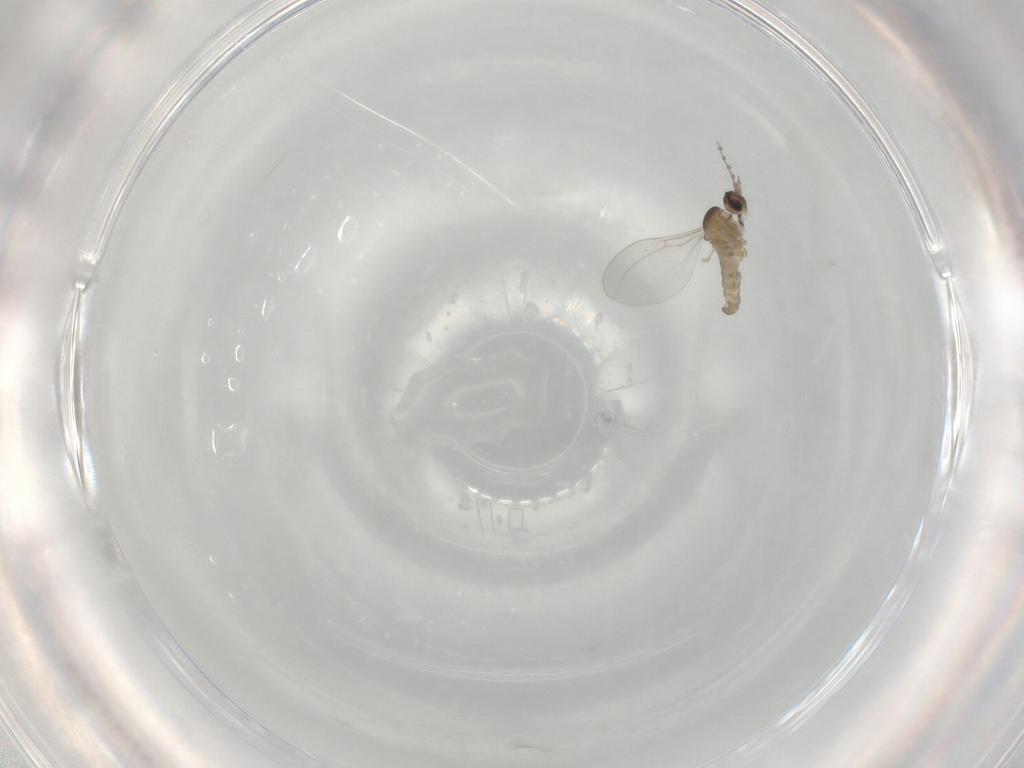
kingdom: Animalia
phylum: Arthropoda
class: Insecta
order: Diptera
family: Cecidomyiidae
